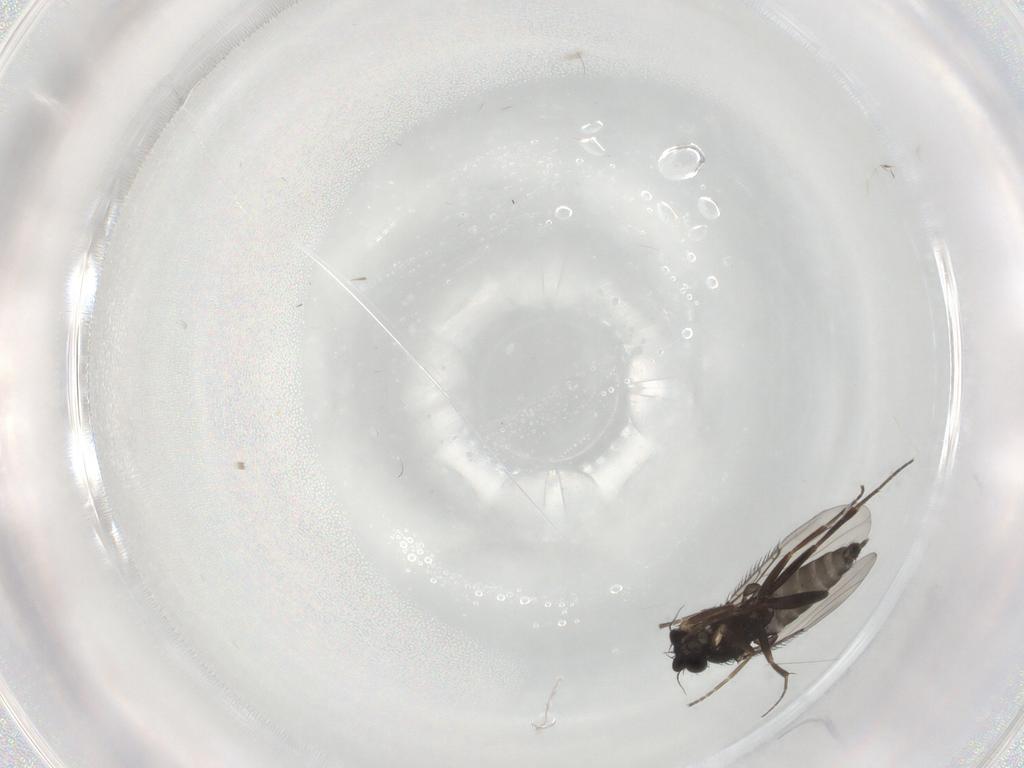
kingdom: Animalia
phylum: Arthropoda
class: Insecta
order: Diptera
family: Phoridae
